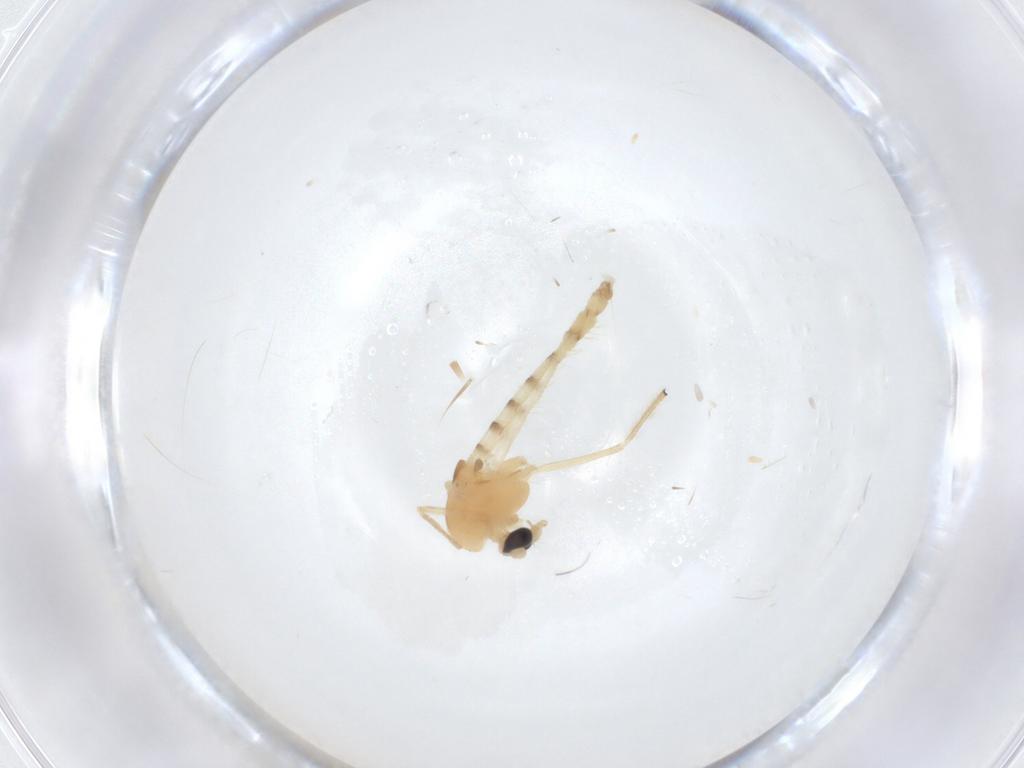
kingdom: Animalia
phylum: Arthropoda
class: Insecta
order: Diptera
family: Chironomidae
